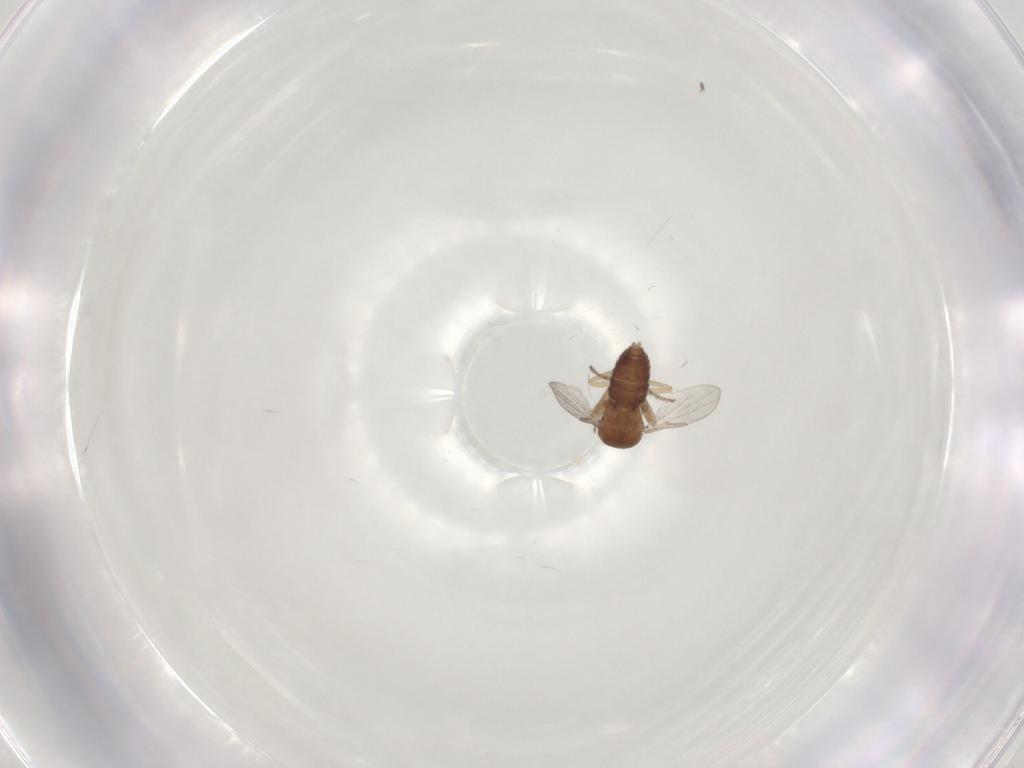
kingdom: Animalia
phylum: Arthropoda
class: Insecta
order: Diptera
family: Ceratopogonidae
